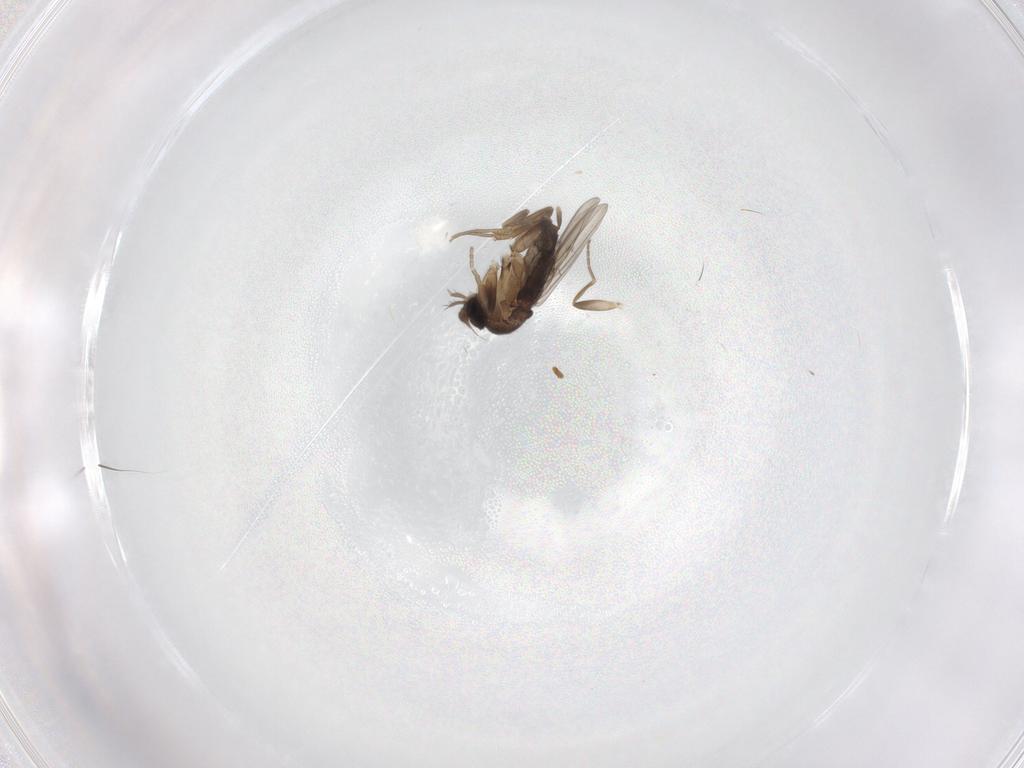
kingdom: Animalia
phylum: Arthropoda
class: Insecta
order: Diptera
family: Phoridae
